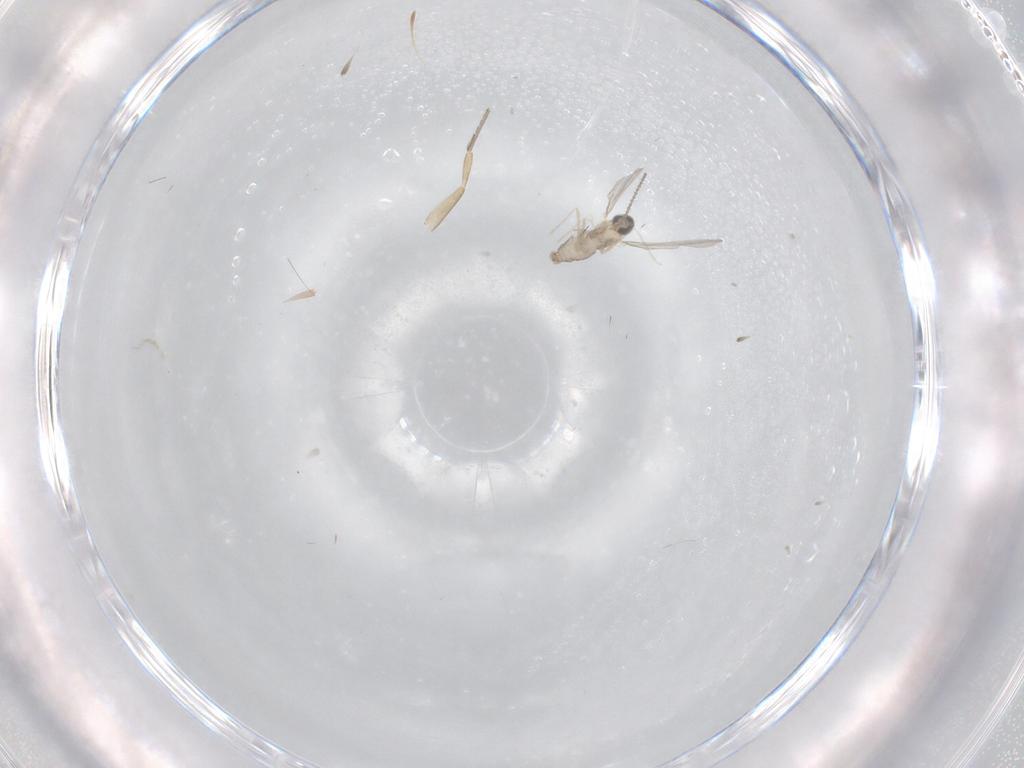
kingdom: Animalia
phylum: Arthropoda
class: Insecta
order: Diptera
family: Phoridae
